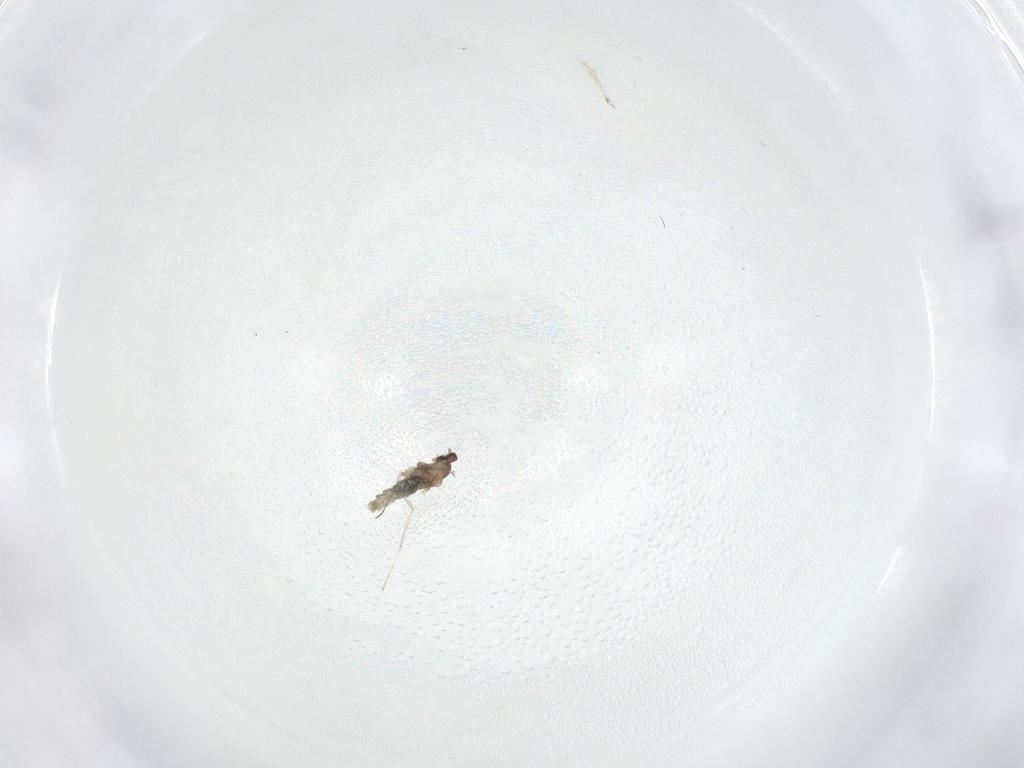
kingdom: Animalia
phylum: Arthropoda
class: Insecta
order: Diptera
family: Cecidomyiidae
